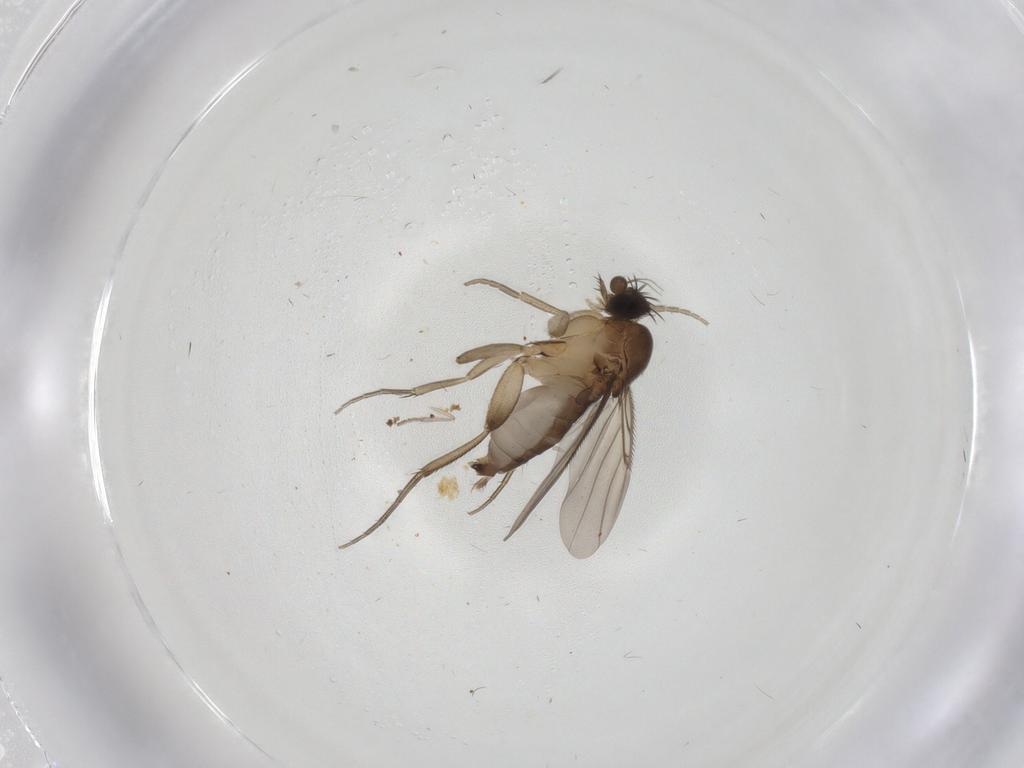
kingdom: Animalia
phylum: Arthropoda
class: Insecta
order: Diptera
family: Phoridae
